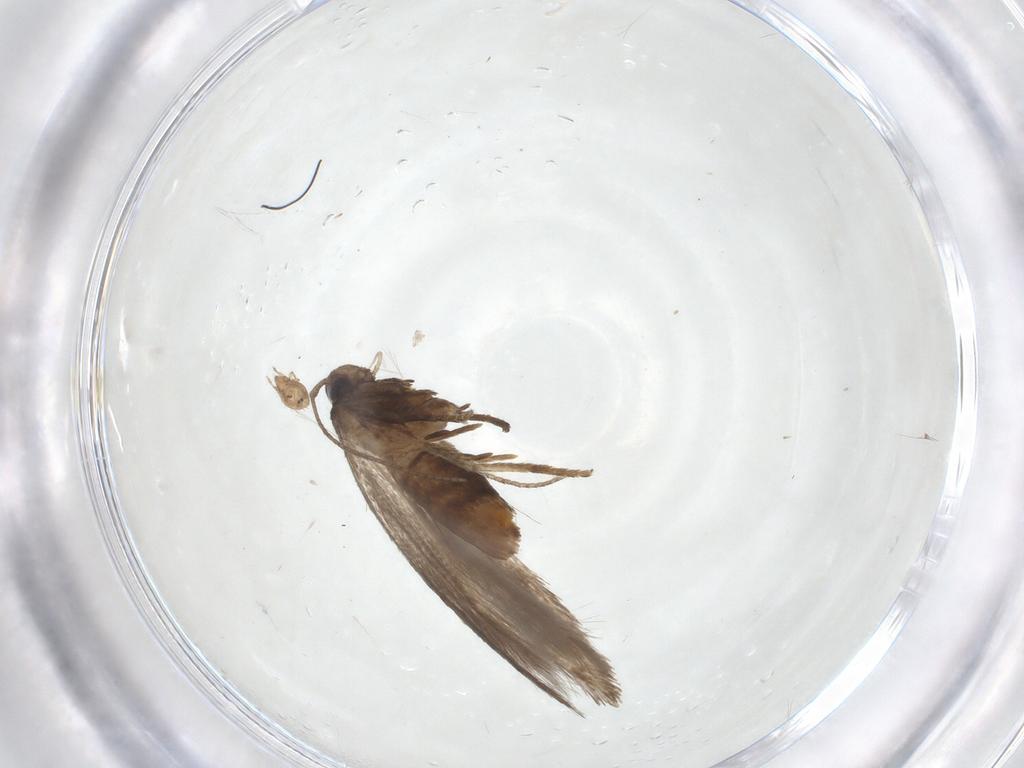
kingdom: Animalia
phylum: Arthropoda
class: Insecta
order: Lepidoptera
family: Gelechiidae
